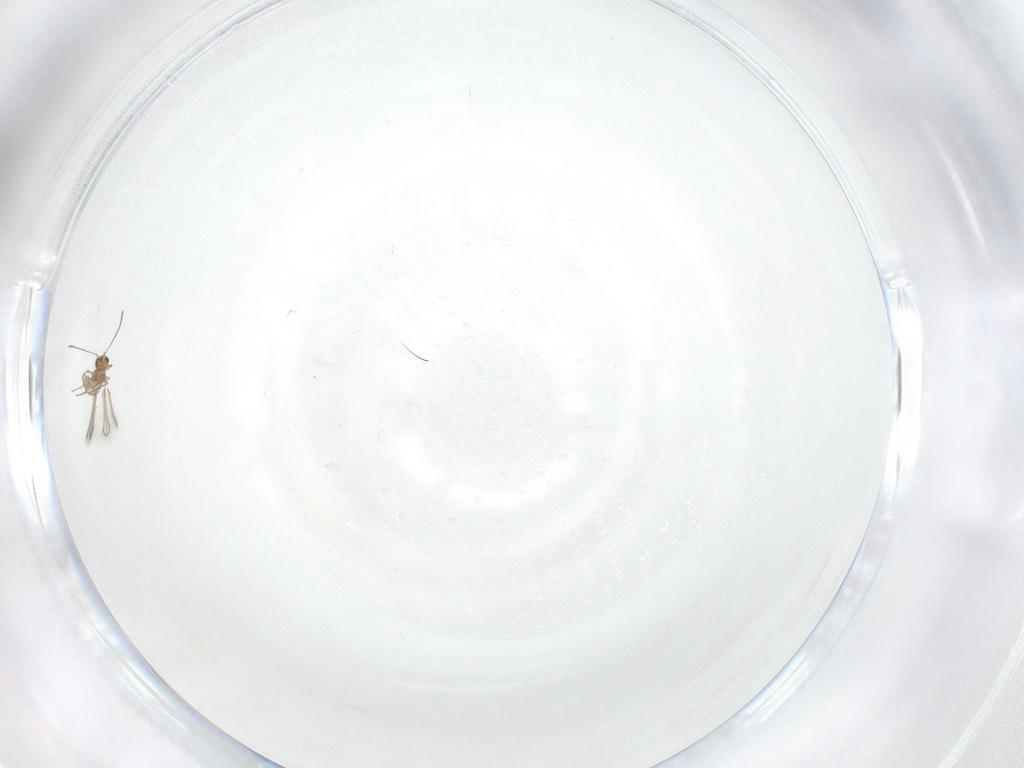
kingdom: Animalia
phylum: Arthropoda
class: Insecta
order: Hymenoptera
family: Mymaridae
